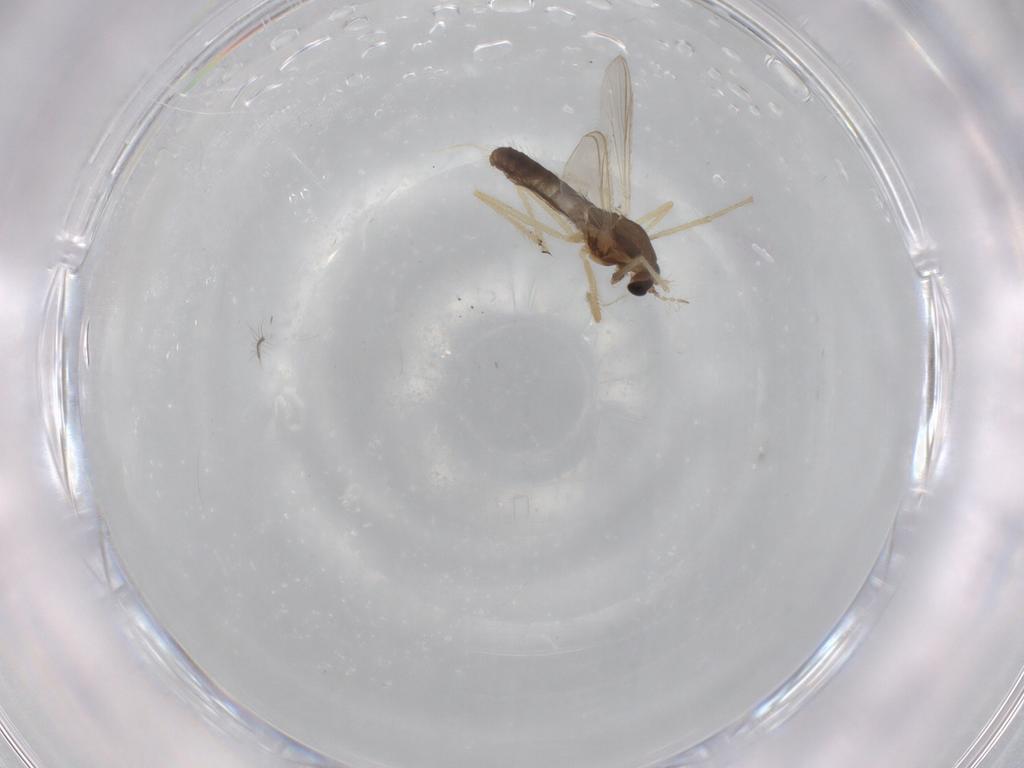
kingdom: Animalia
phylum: Arthropoda
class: Insecta
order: Diptera
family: Chironomidae
